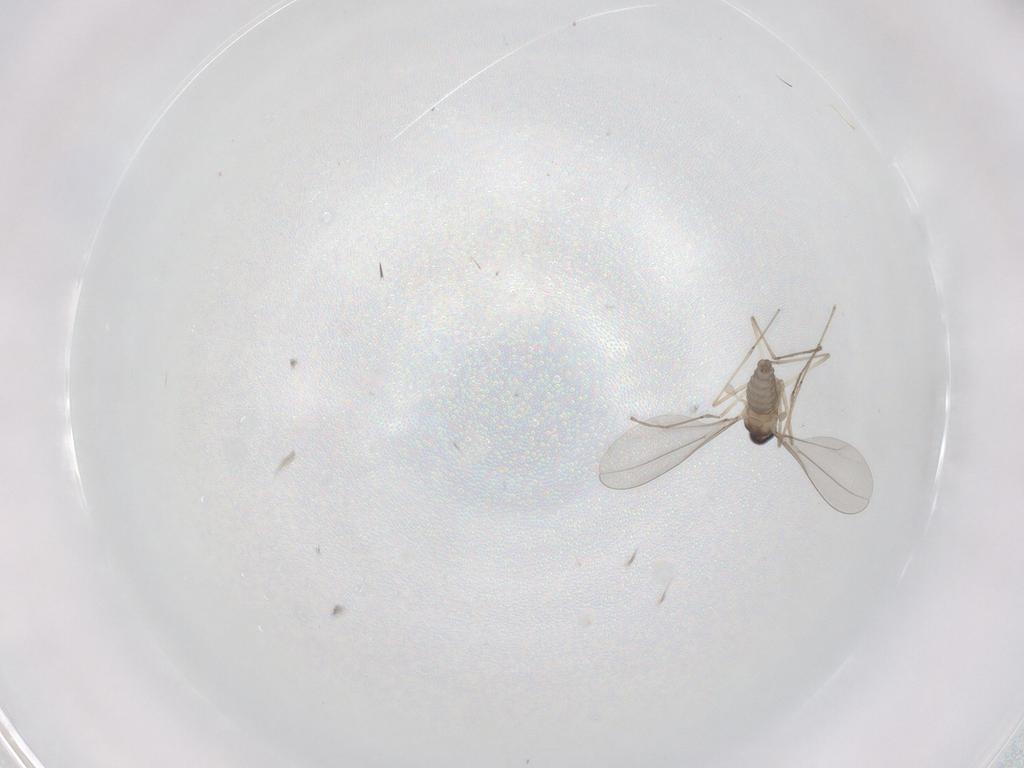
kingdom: Animalia
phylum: Arthropoda
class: Insecta
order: Diptera
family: Cecidomyiidae
